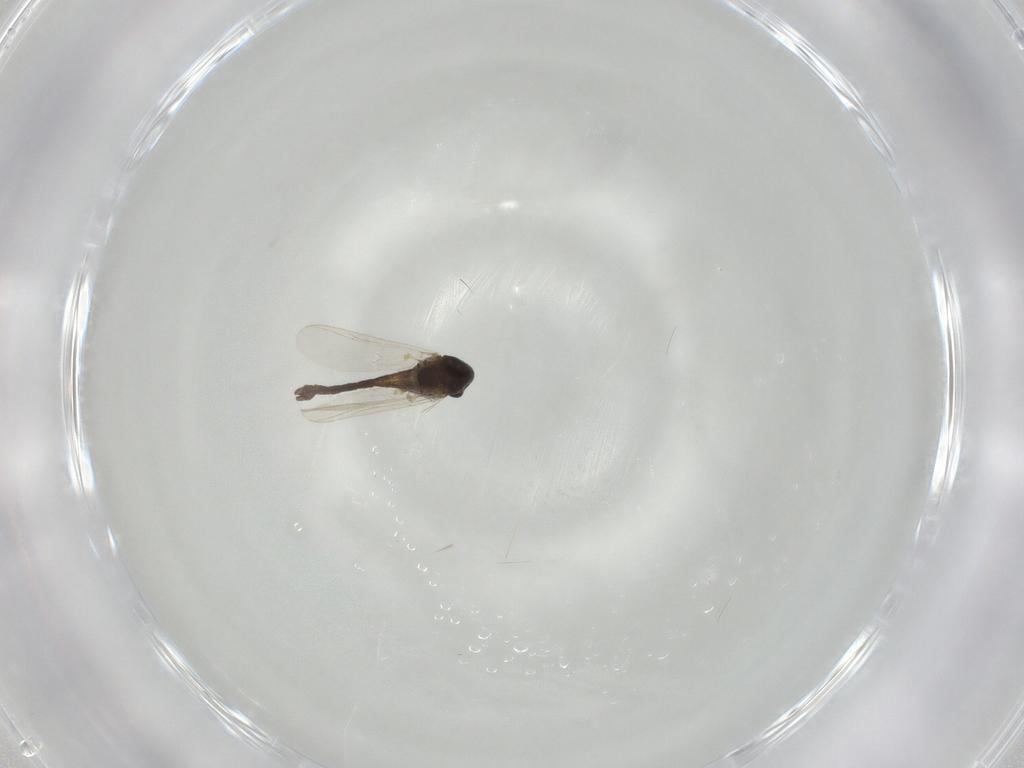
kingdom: Animalia
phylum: Arthropoda
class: Insecta
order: Diptera
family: Chironomidae
